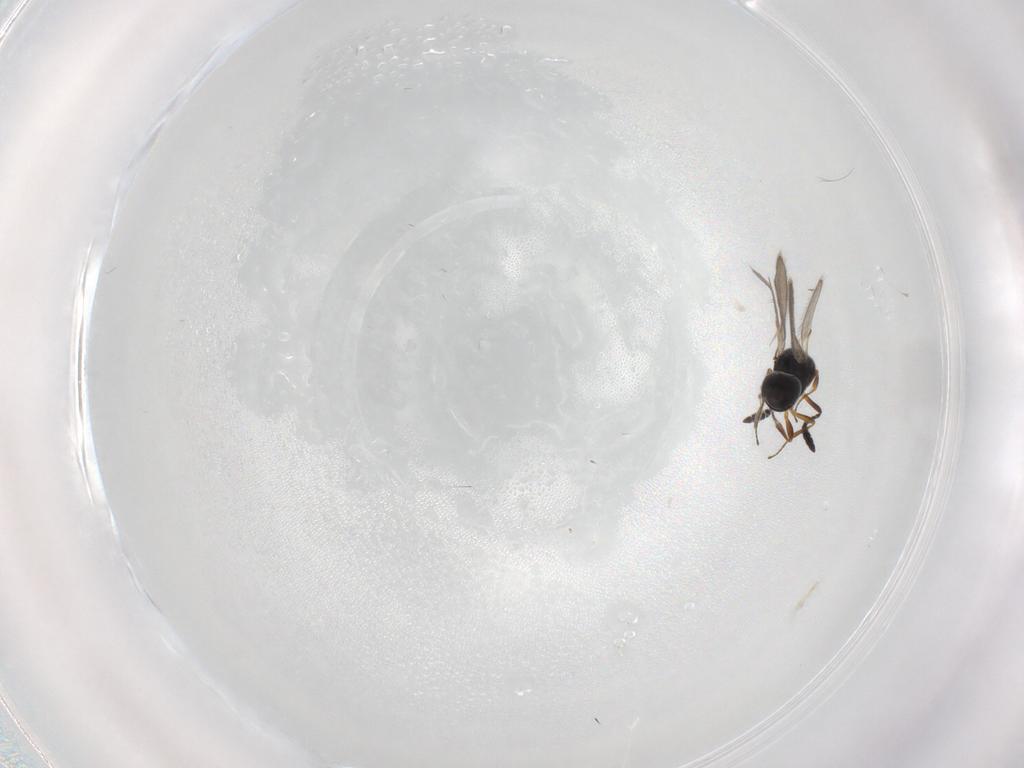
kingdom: Animalia
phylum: Arthropoda
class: Insecta
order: Hymenoptera
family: Scelionidae
